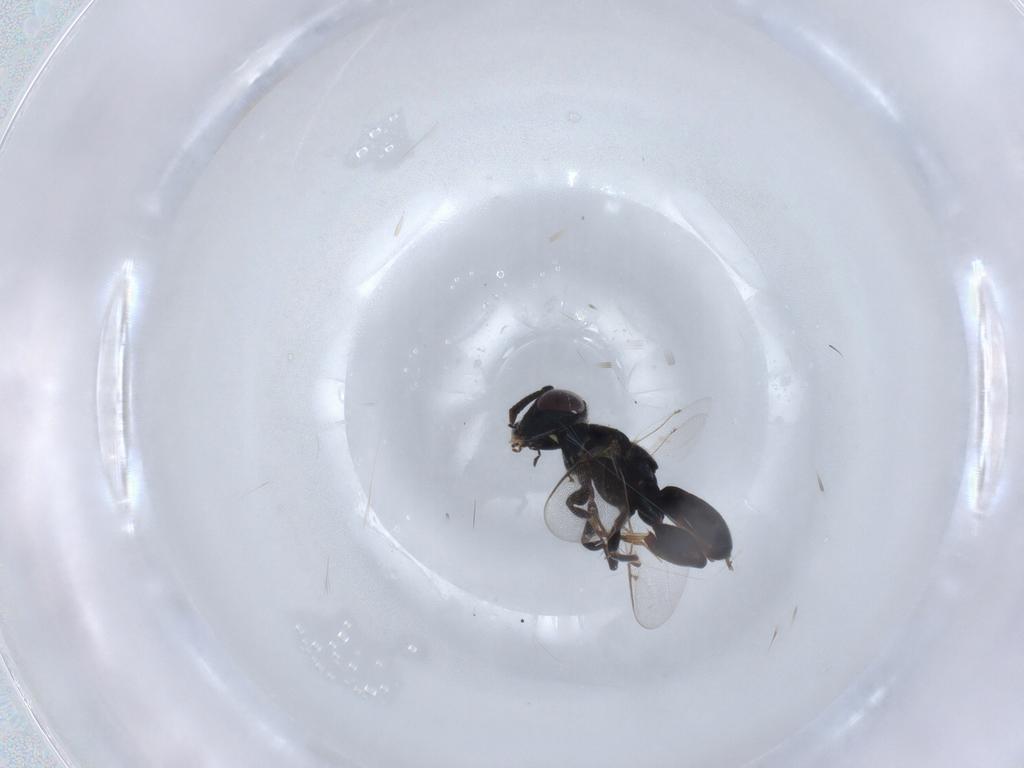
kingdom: Animalia
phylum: Arthropoda
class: Insecta
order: Hymenoptera
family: Pteromalidae
